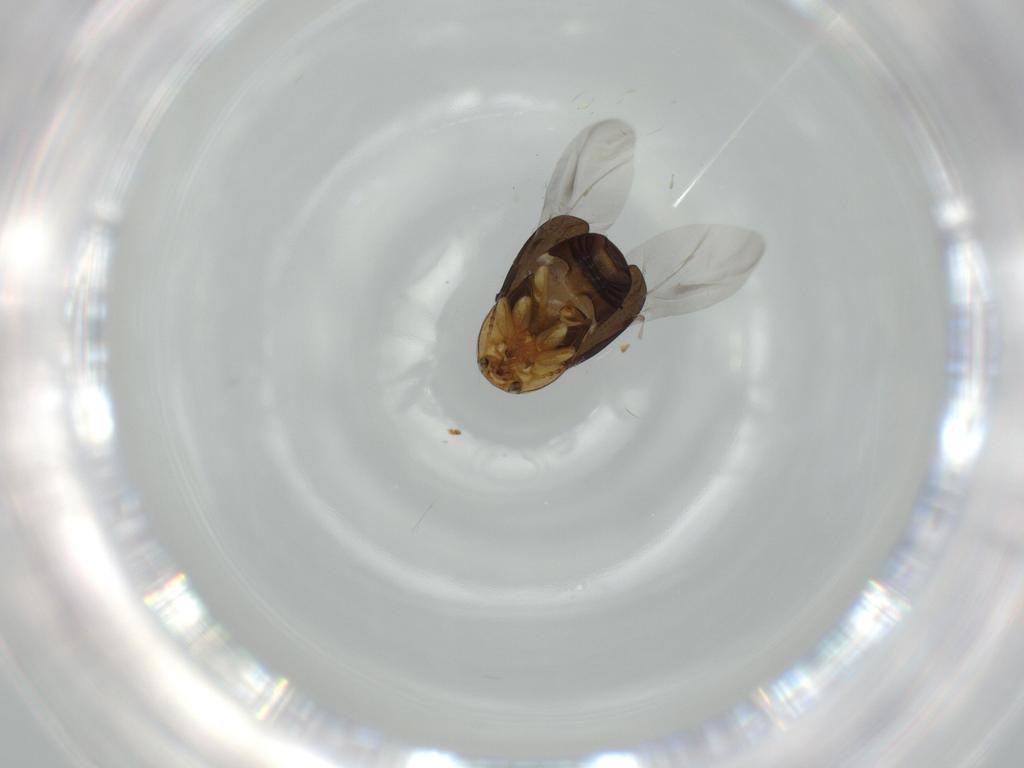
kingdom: Animalia
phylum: Arthropoda
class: Insecta
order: Coleoptera
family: Chrysomelidae
